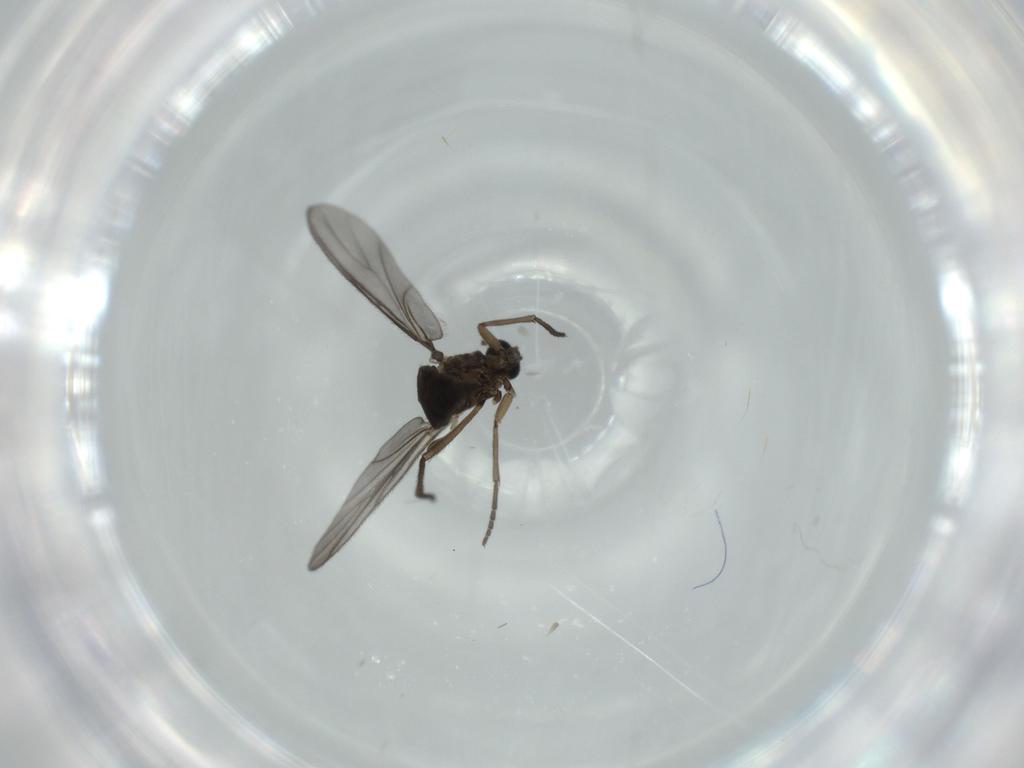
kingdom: Animalia
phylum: Arthropoda
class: Insecta
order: Diptera
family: Sciaridae
